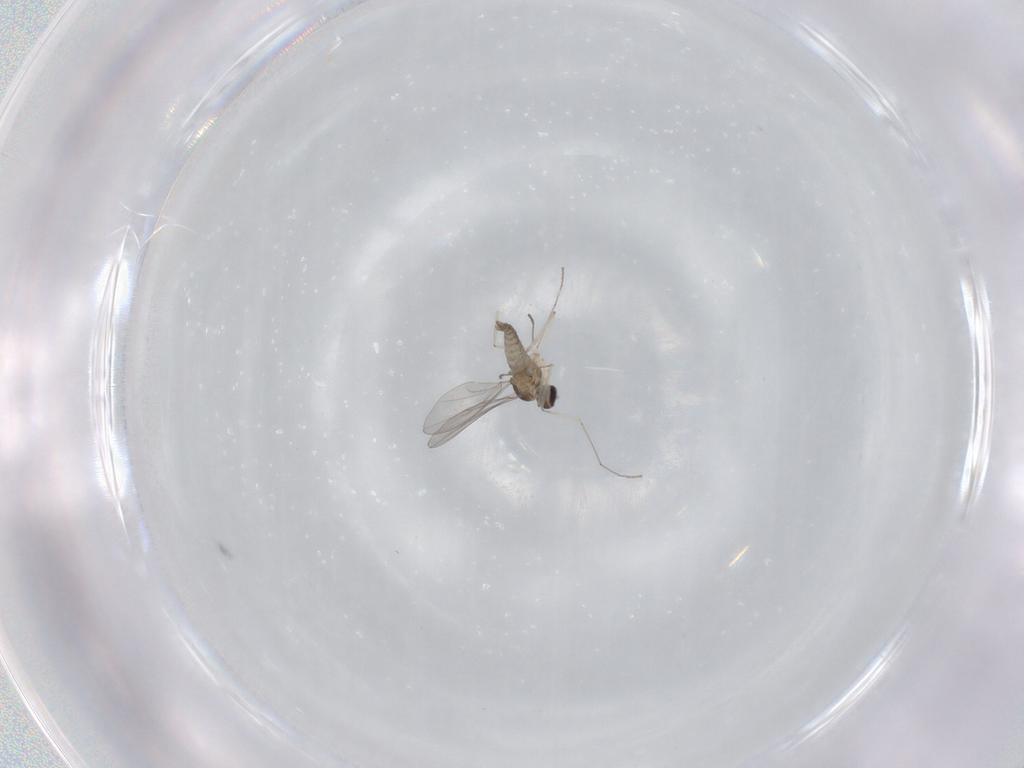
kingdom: Animalia
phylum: Arthropoda
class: Insecta
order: Diptera
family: Cecidomyiidae
